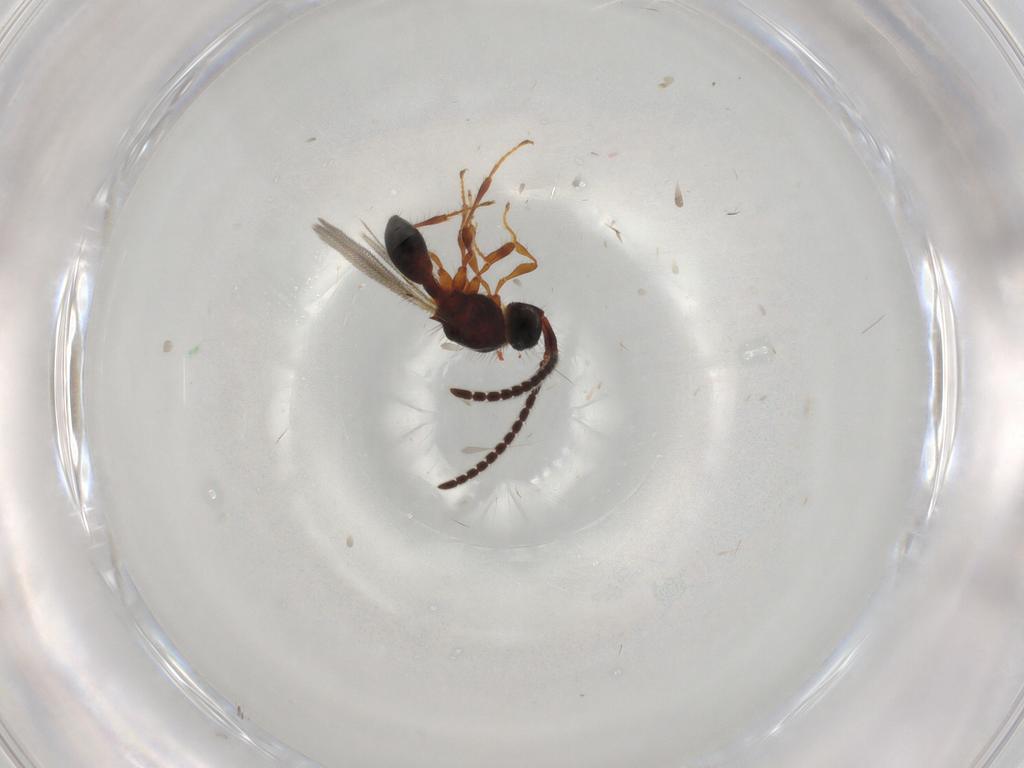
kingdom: Animalia
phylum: Arthropoda
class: Insecta
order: Hymenoptera
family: Diapriidae
